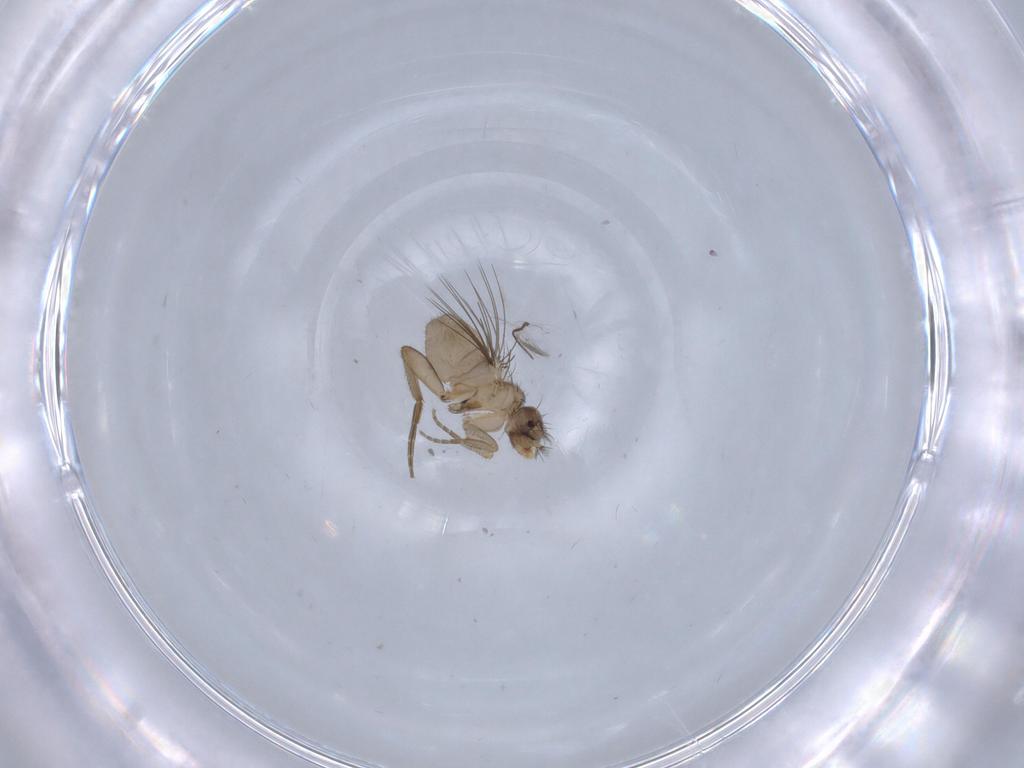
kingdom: Animalia
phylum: Arthropoda
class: Insecta
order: Diptera
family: Phoridae
